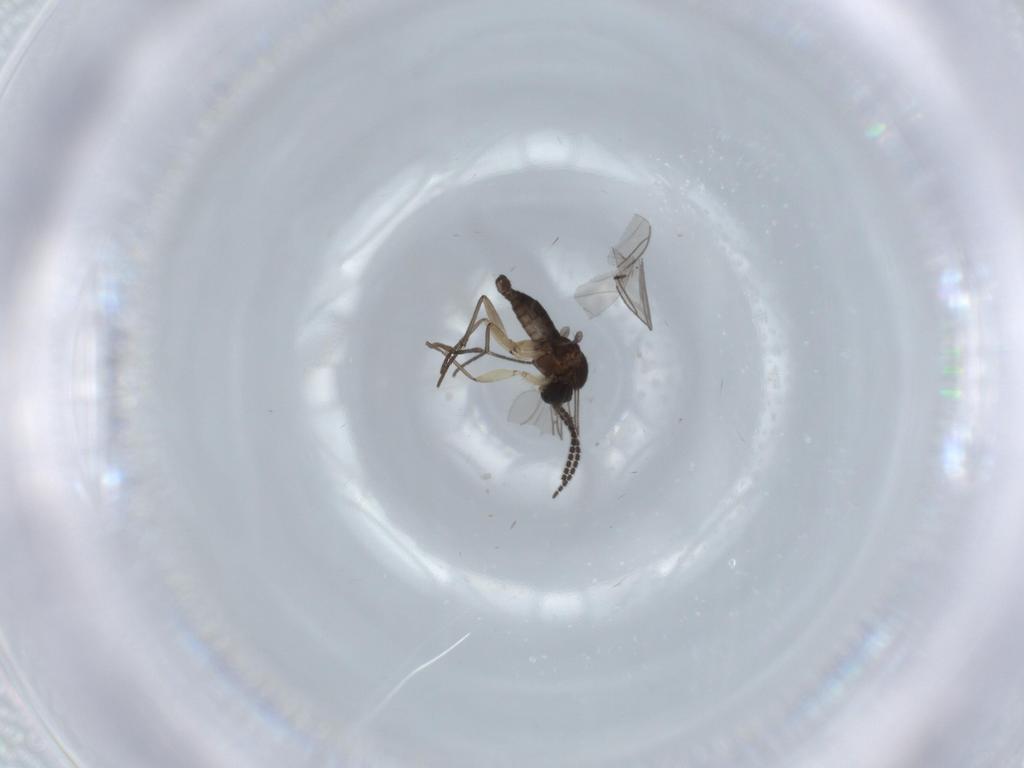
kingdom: Animalia
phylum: Arthropoda
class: Insecta
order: Diptera
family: Sciaridae
